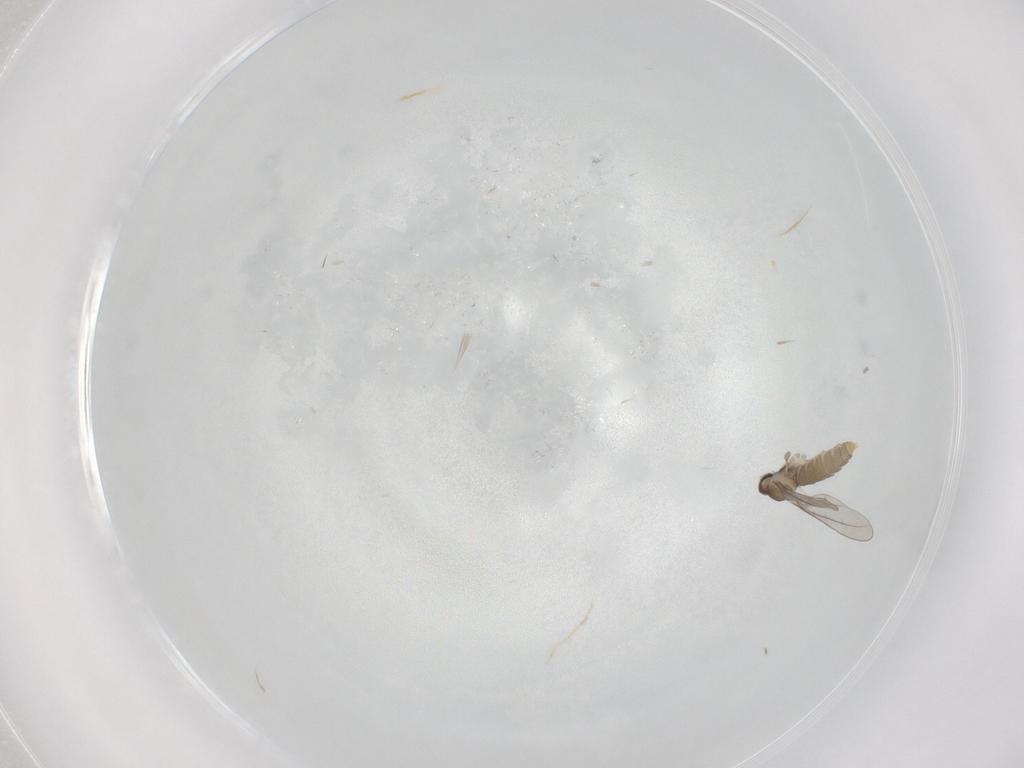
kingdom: Animalia
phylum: Arthropoda
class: Insecta
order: Diptera
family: Cecidomyiidae
